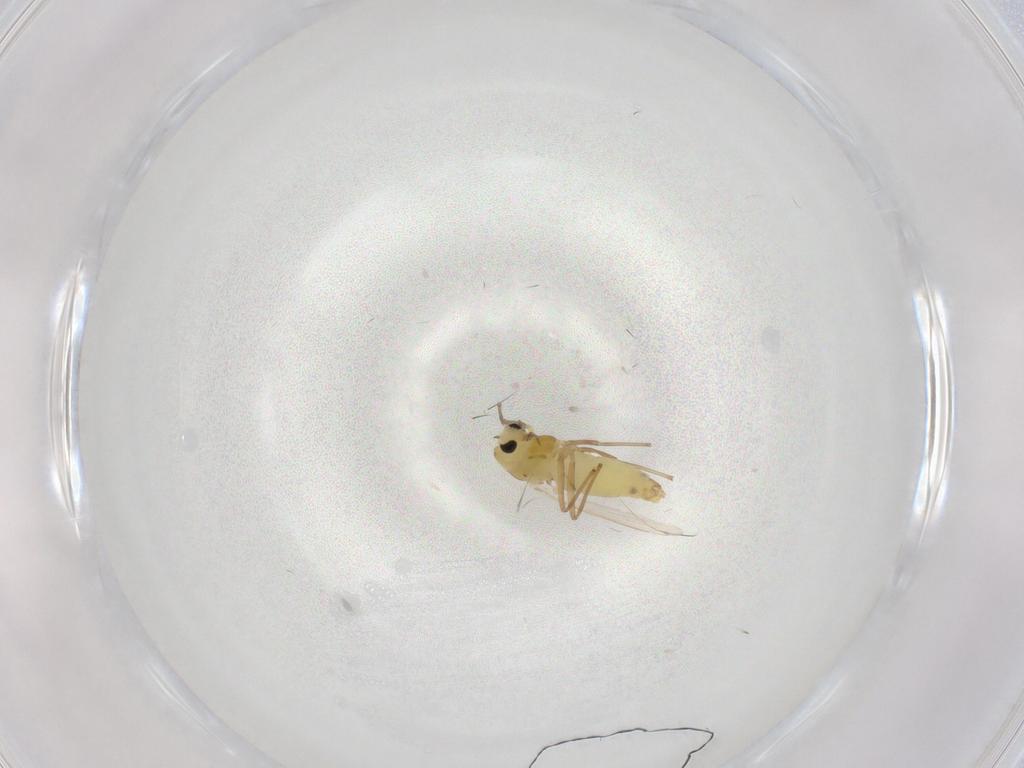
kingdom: Animalia
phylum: Arthropoda
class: Insecta
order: Diptera
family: Chironomidae
